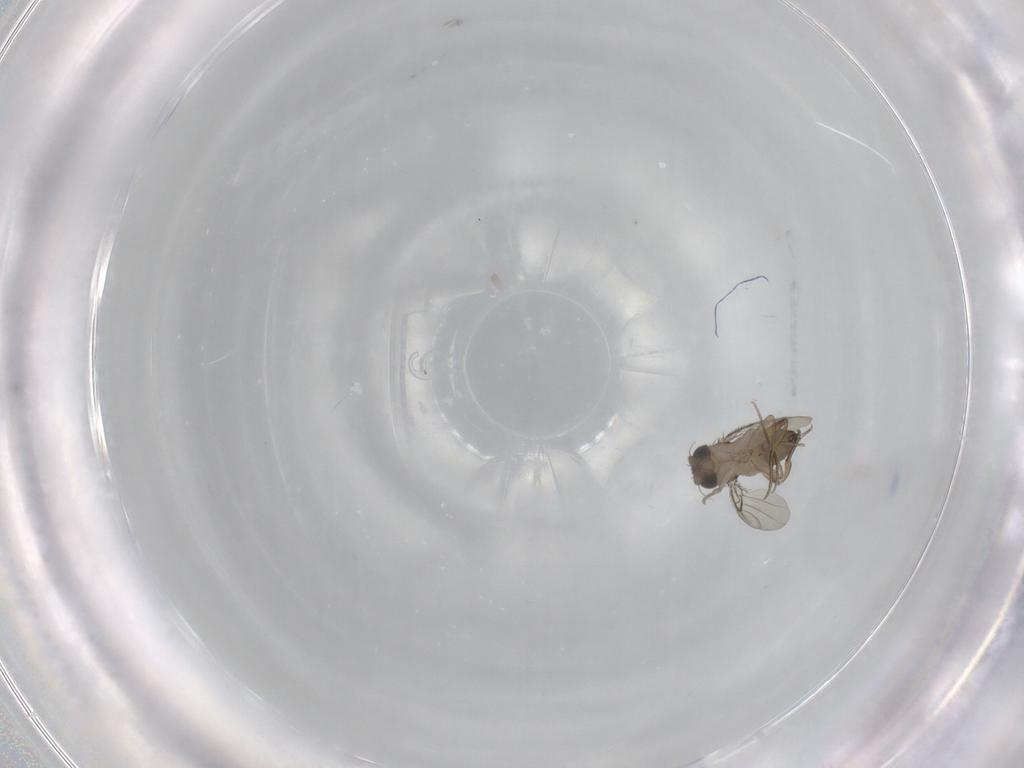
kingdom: Animalia
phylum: Arthropoda
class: Insecta
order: Diptera
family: Phoridae
